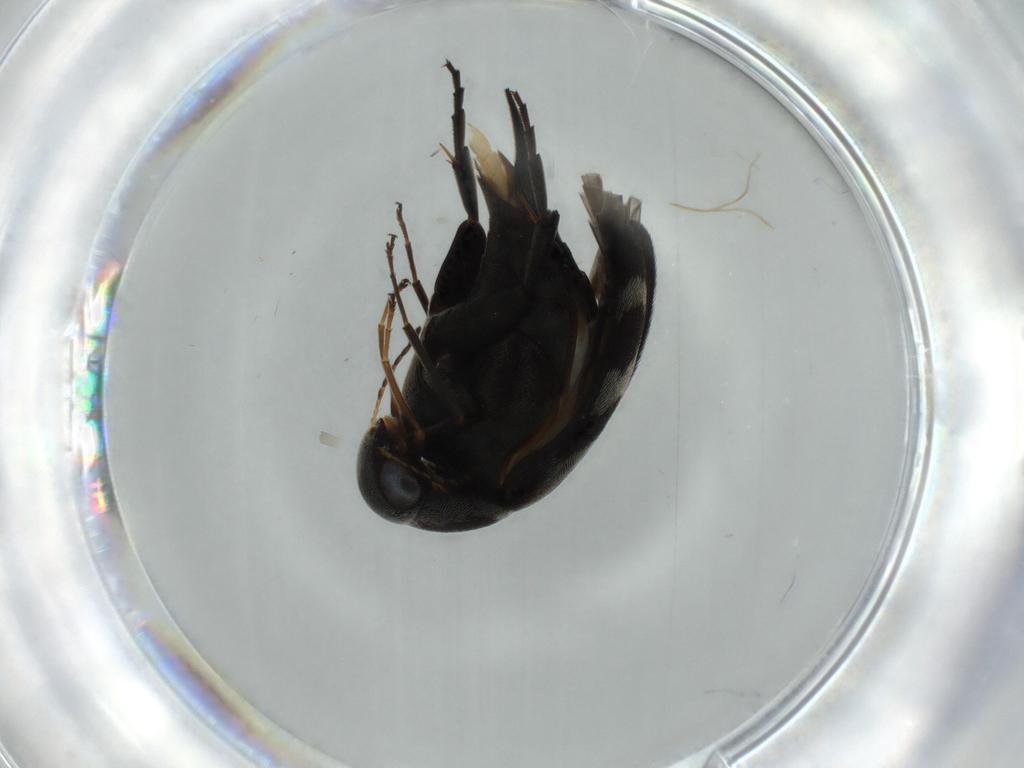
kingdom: Animalia
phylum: Arthropoda
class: Insecta
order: Coleoptera
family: Mordellidae
